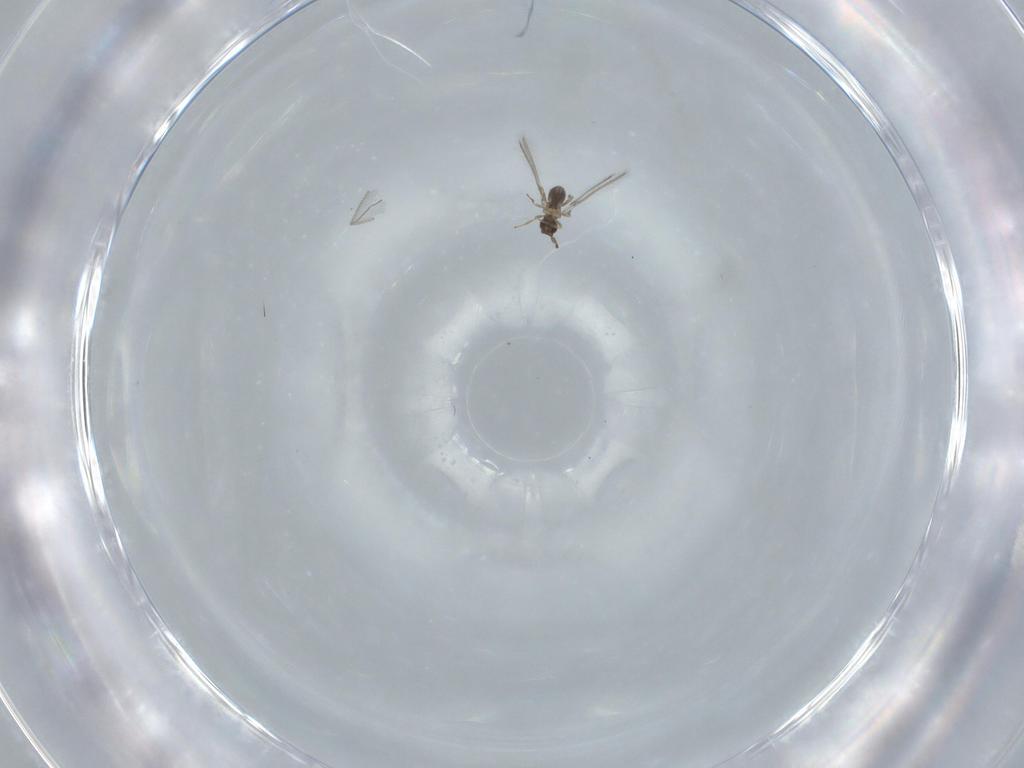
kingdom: Animalia
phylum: Arthropoda
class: Insecta
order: Hymenoptera
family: Mymaridae
